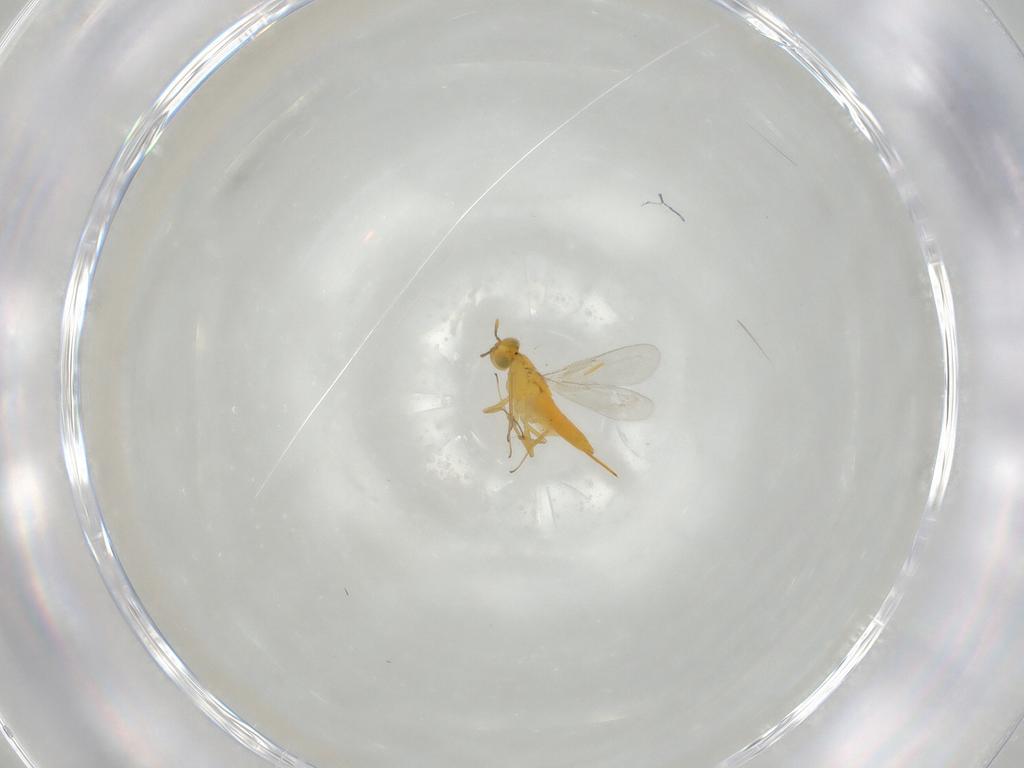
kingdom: Animalia
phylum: Arthropoda
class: Insecta
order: Hymenoptera
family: Aphelinidae
